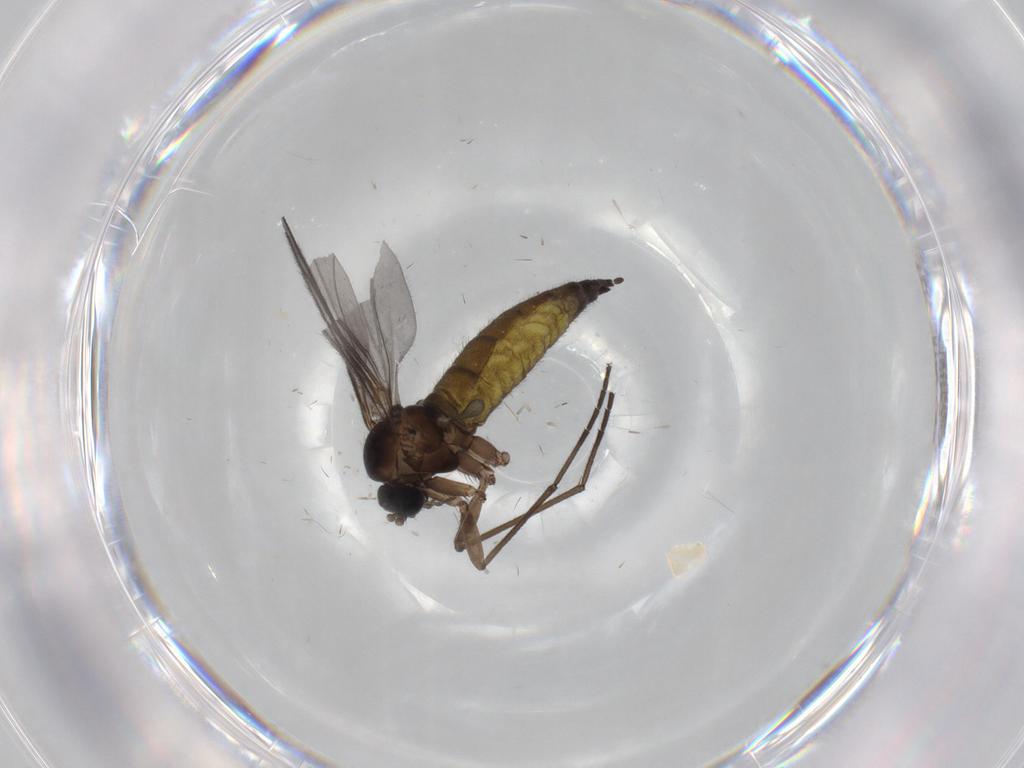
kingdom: Animalia
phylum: Arthropoda
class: Insecta
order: Diptera
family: Sciaridae
